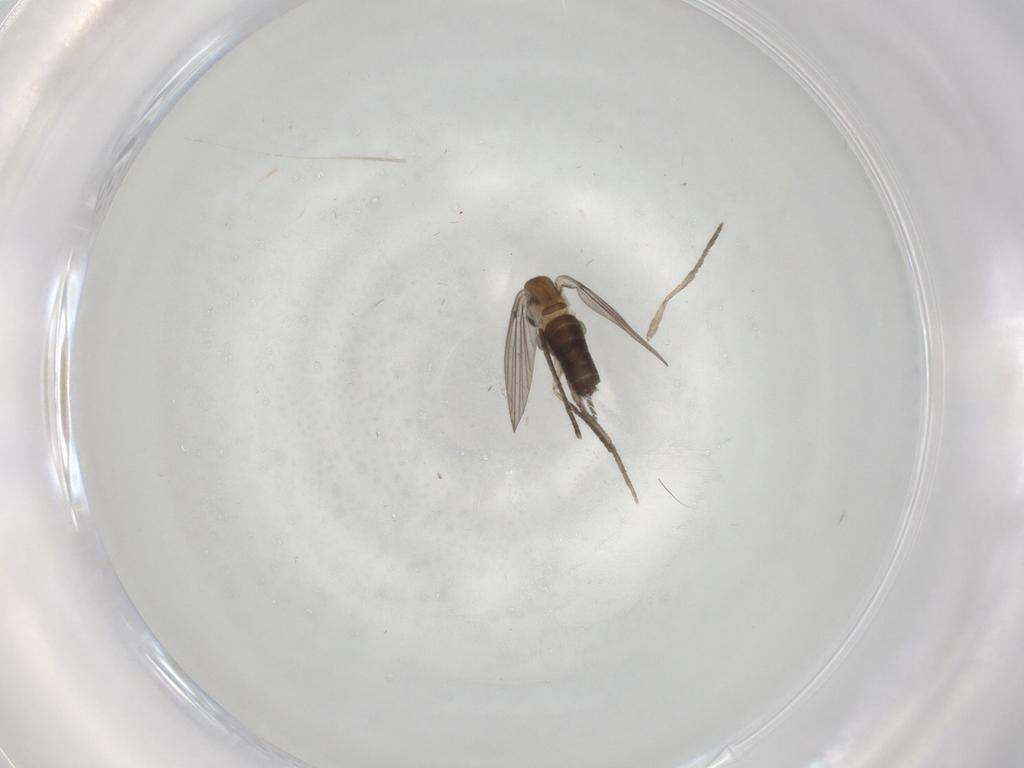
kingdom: Animalia
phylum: Arthropoda
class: Insecta
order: Diptera
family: Psychodidae
